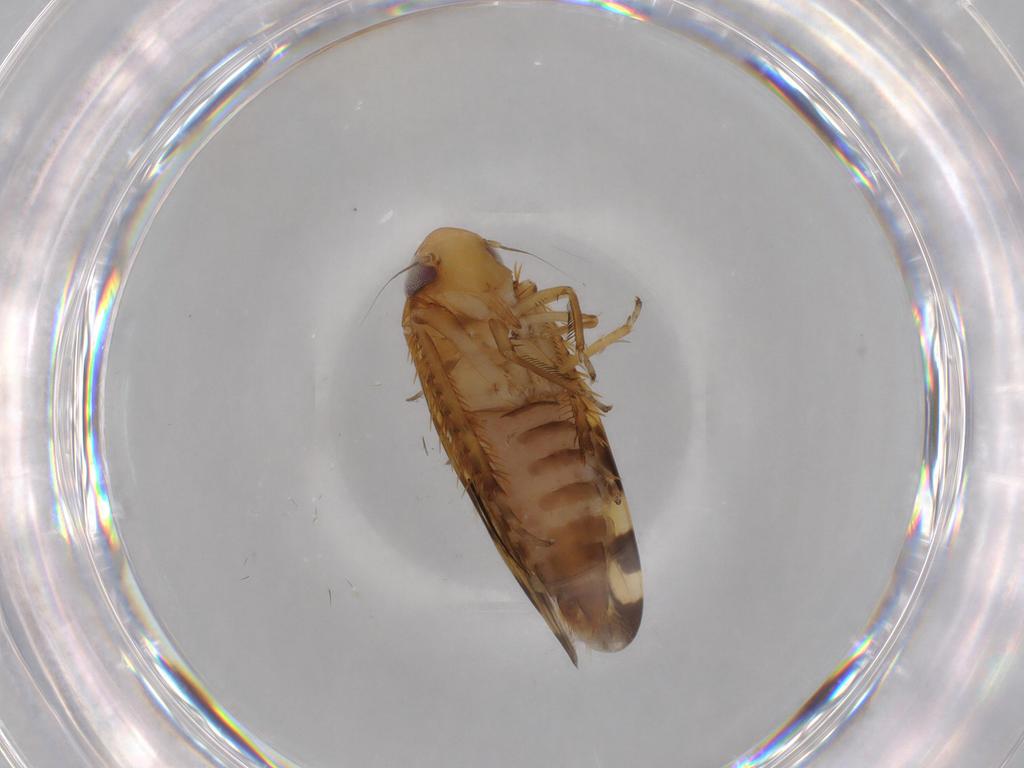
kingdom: Animalia
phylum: Arthropoda
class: Insecta
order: Hemiptera
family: Cicadellidae
